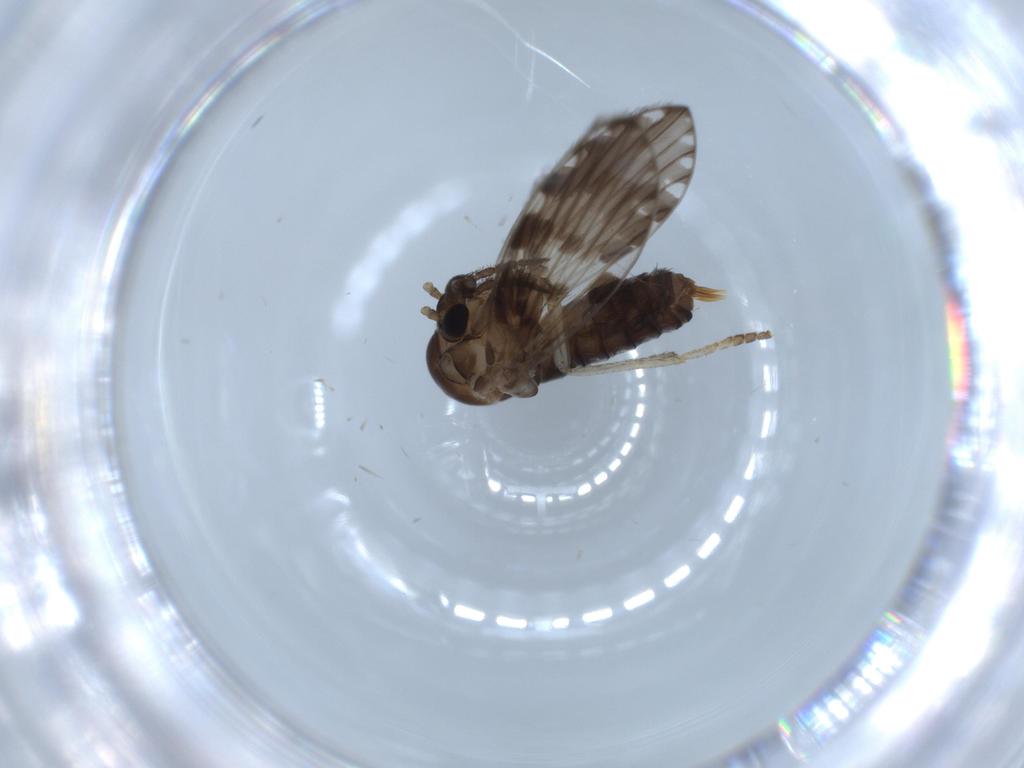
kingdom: Animalia
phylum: Arthropoda
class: Insecta
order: Diptera
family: Psychodidae
